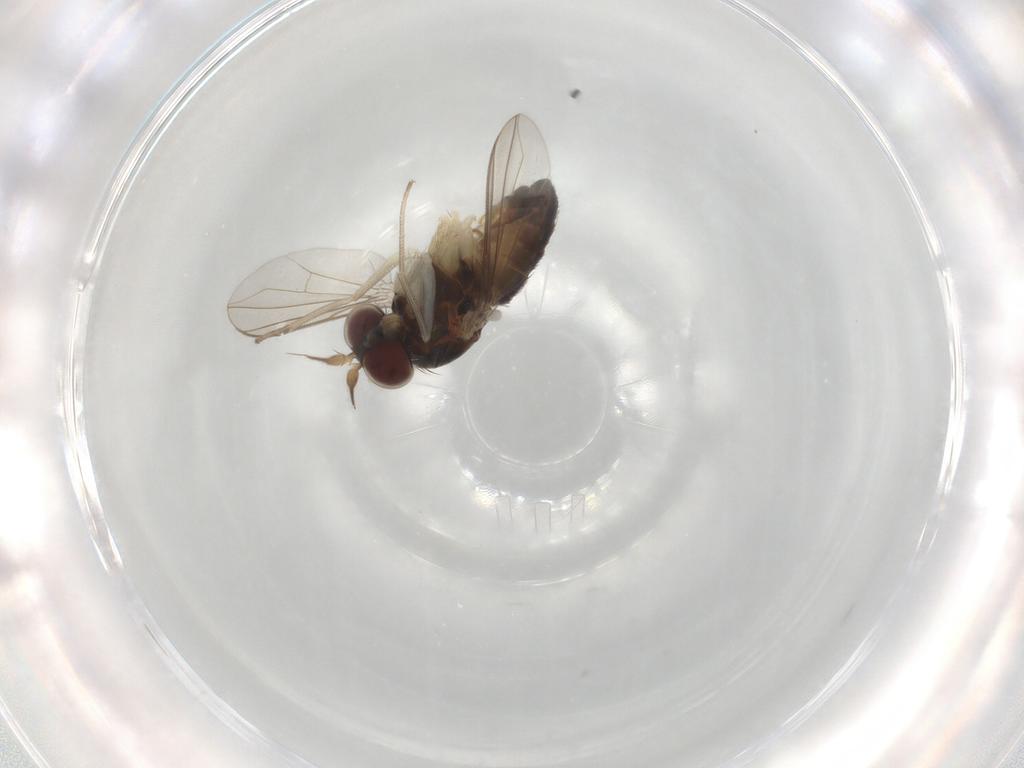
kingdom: Animalia
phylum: Arthropoda
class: Insecta
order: Diptera
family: Dolichopodidae
